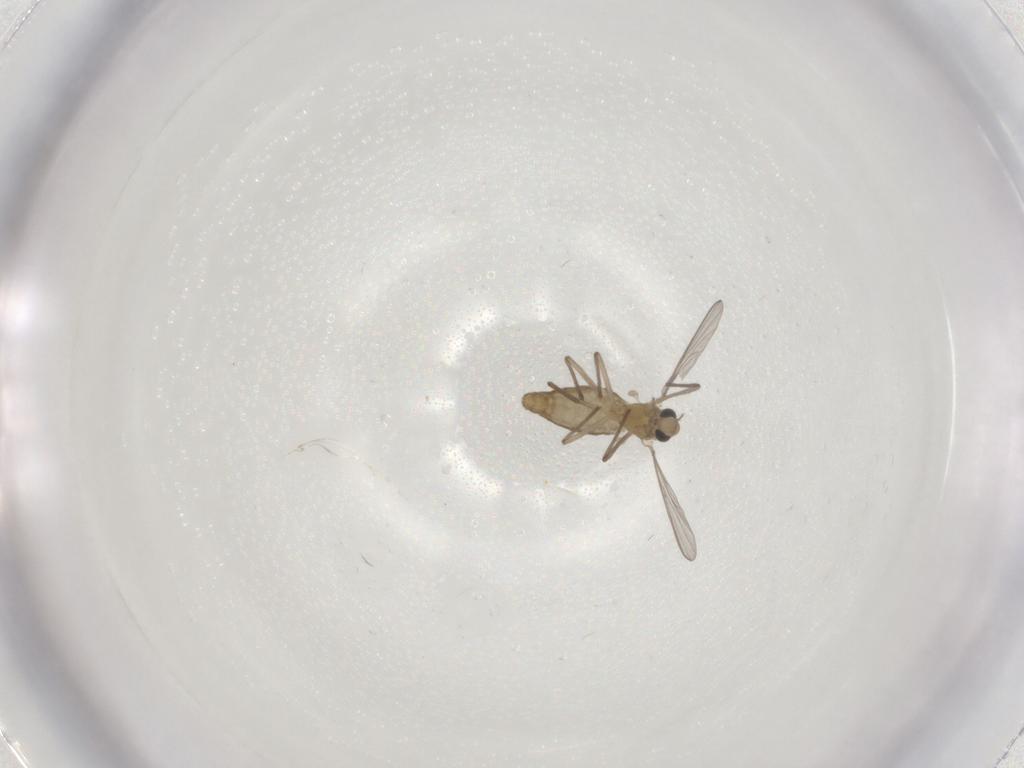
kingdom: Animalia
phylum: Arthropoda
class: Insecta
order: Diptera
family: Chironomidae
